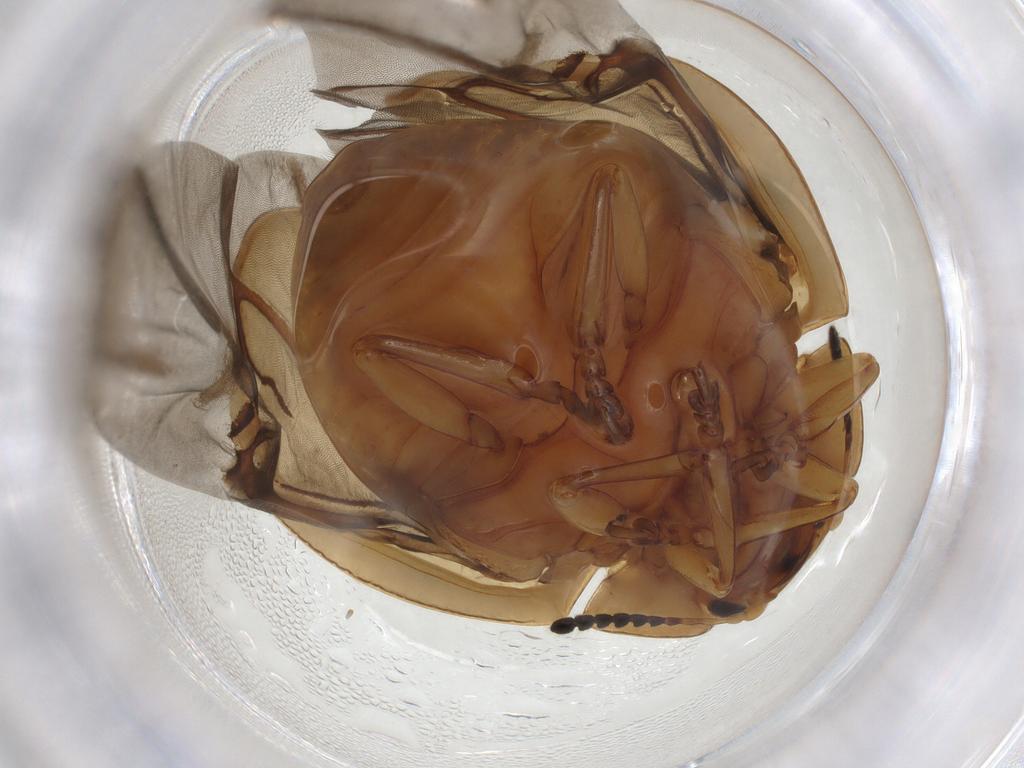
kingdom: Animalia
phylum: Arthropoda
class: Insecta
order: Coleoptera
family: Chrysomelidae
